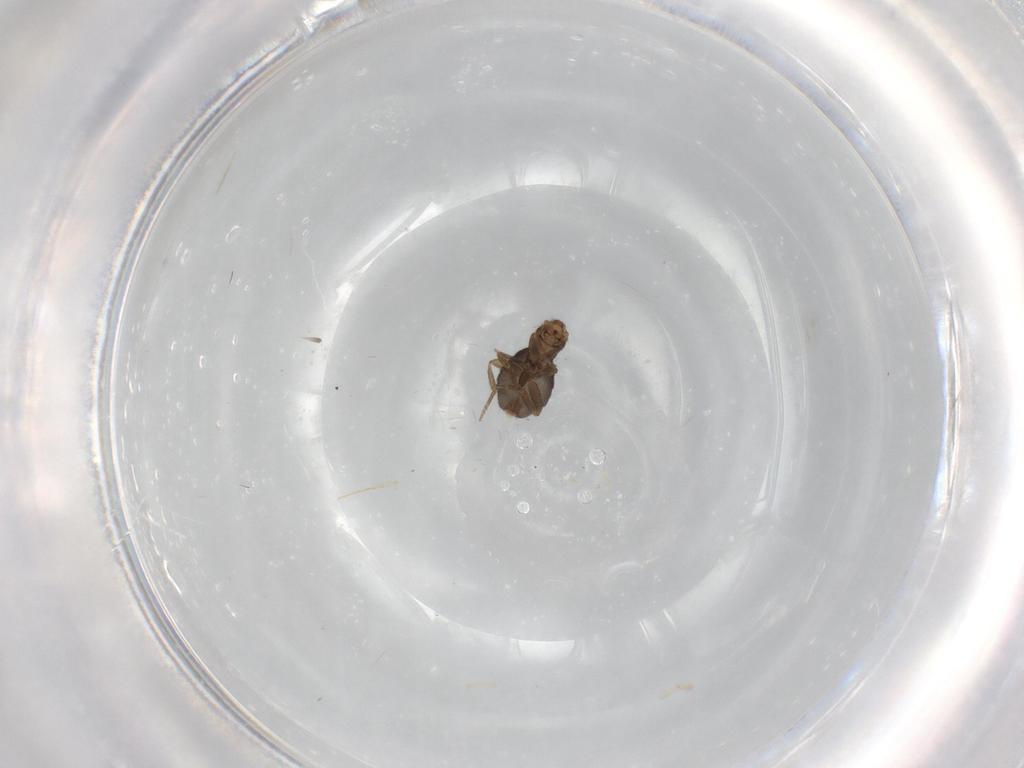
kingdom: Animalia
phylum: Arthropoda
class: Insecta
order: Diptera
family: Phoridae
